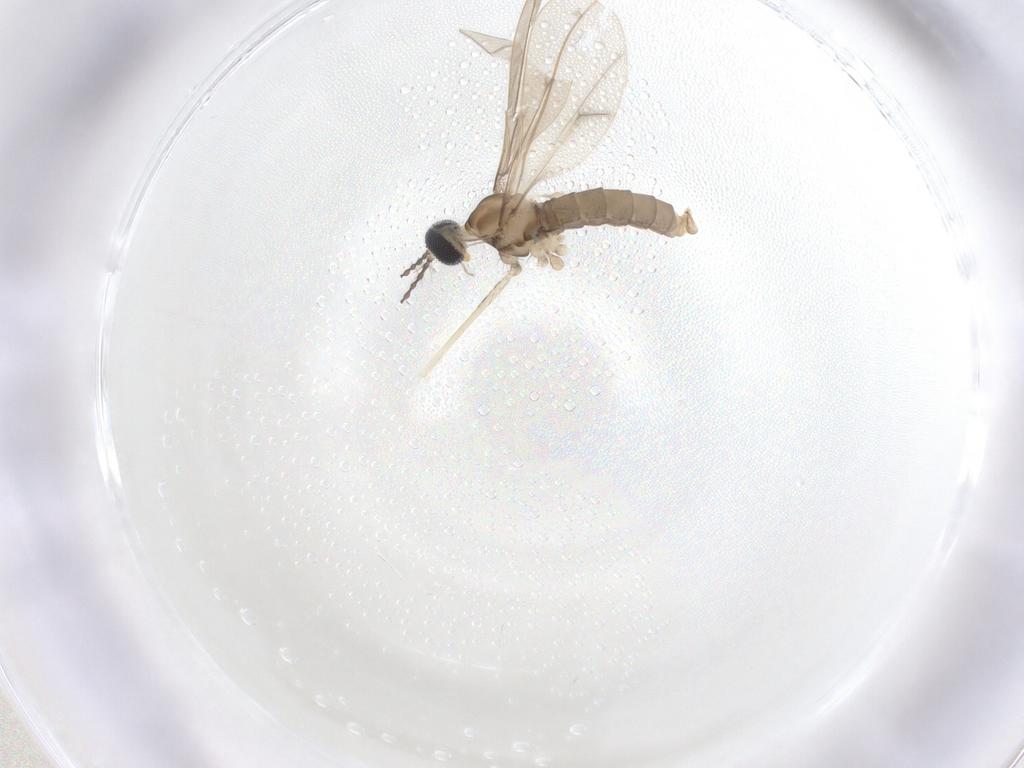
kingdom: Animalia
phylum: Arthropoda
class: Insecta
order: Diptera
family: Cecidomyiidae
